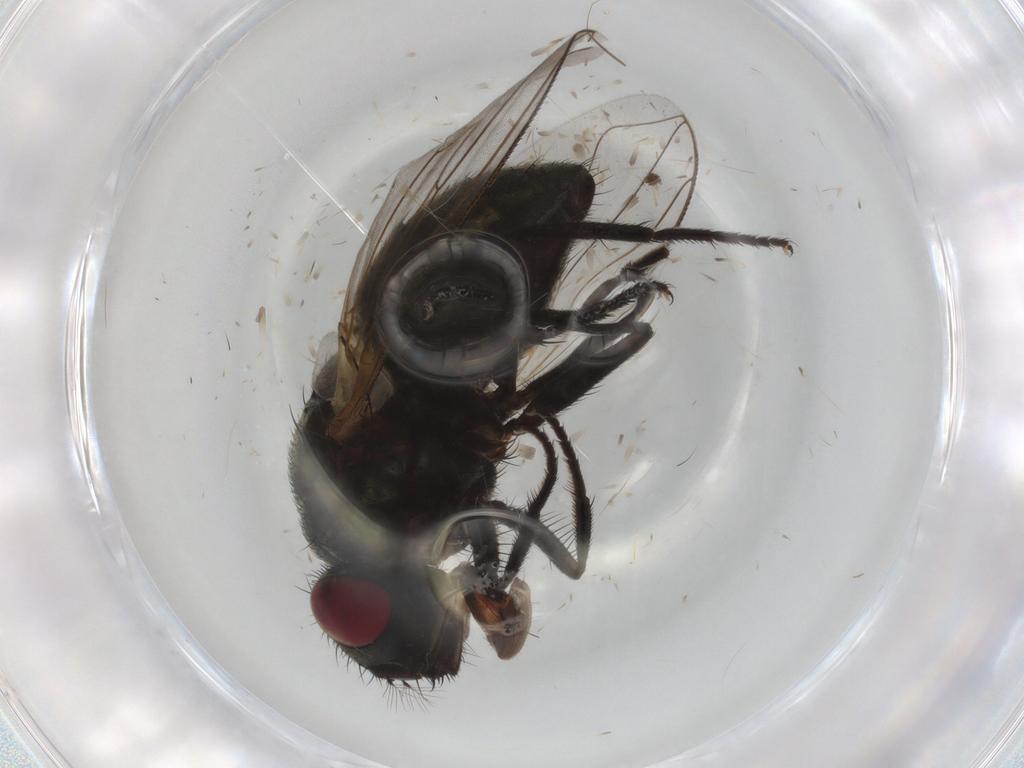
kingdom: Animalia
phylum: Arthropoda
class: Insecta
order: Diptera
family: Muscidae
